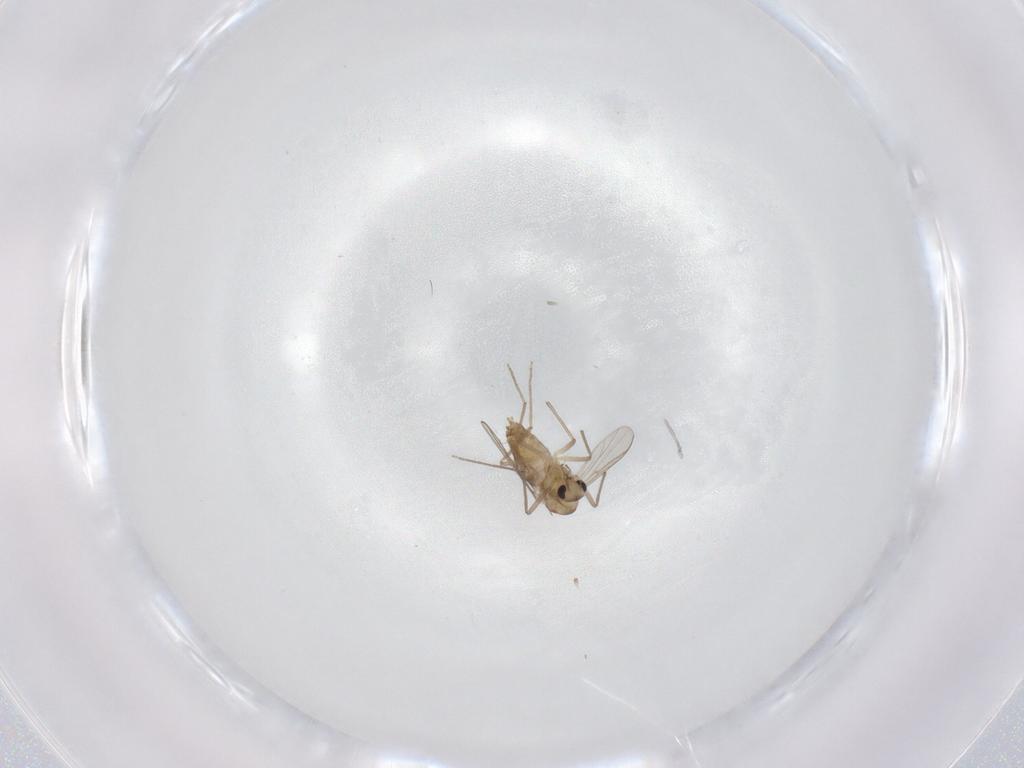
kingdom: Animalia
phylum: Arthropoda
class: Insecta
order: Diptera
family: Chironomidae
